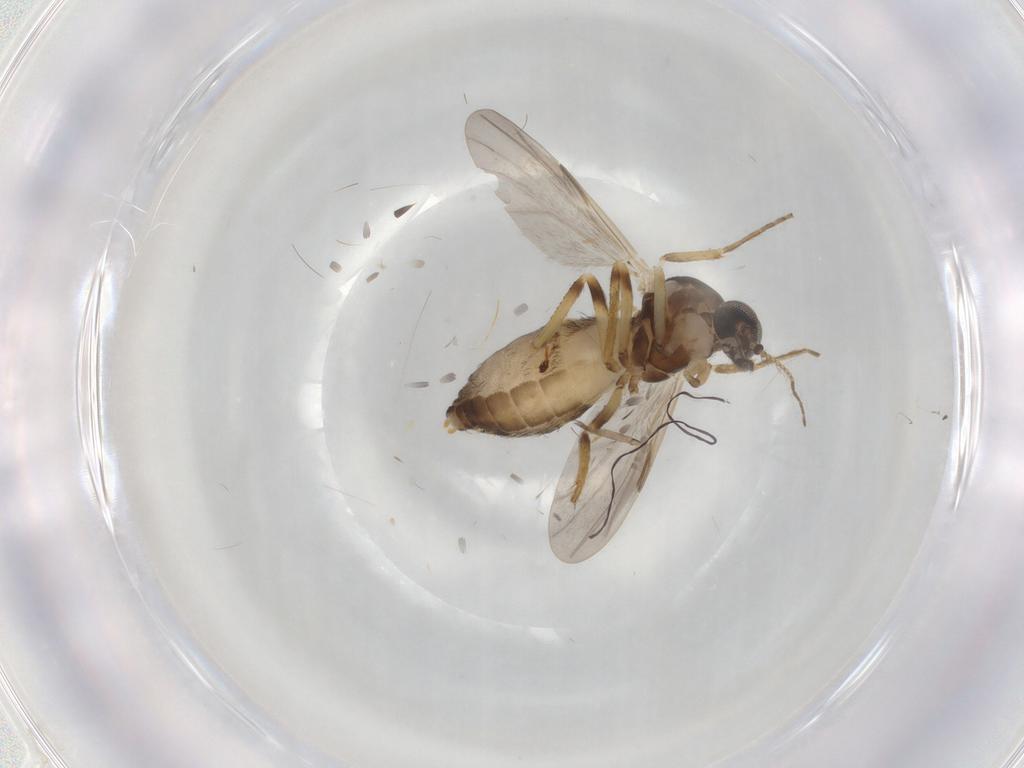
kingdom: Animalia
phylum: Arthropoda
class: Insecta
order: Diptera
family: Ceratopogonidae
